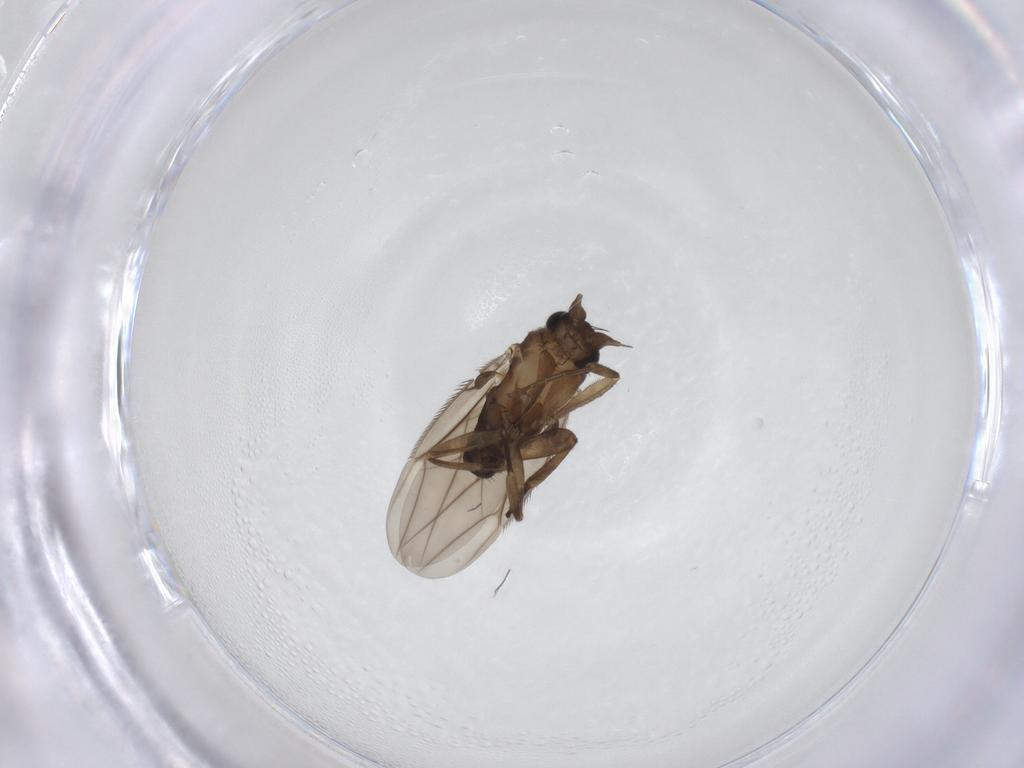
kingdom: Animalia
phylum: Arthropoda
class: Insecta
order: Diptera
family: Phoridae
